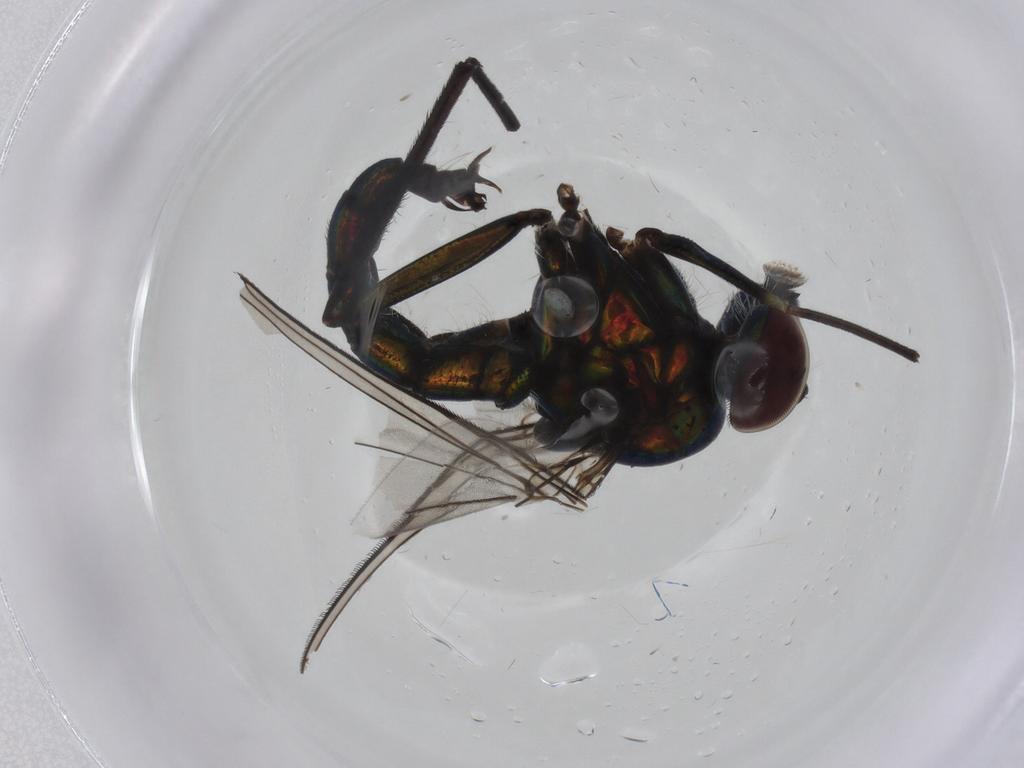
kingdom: Animalia
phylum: Arthropoda
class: Insecta
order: Diptera
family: Dolichopodidae
